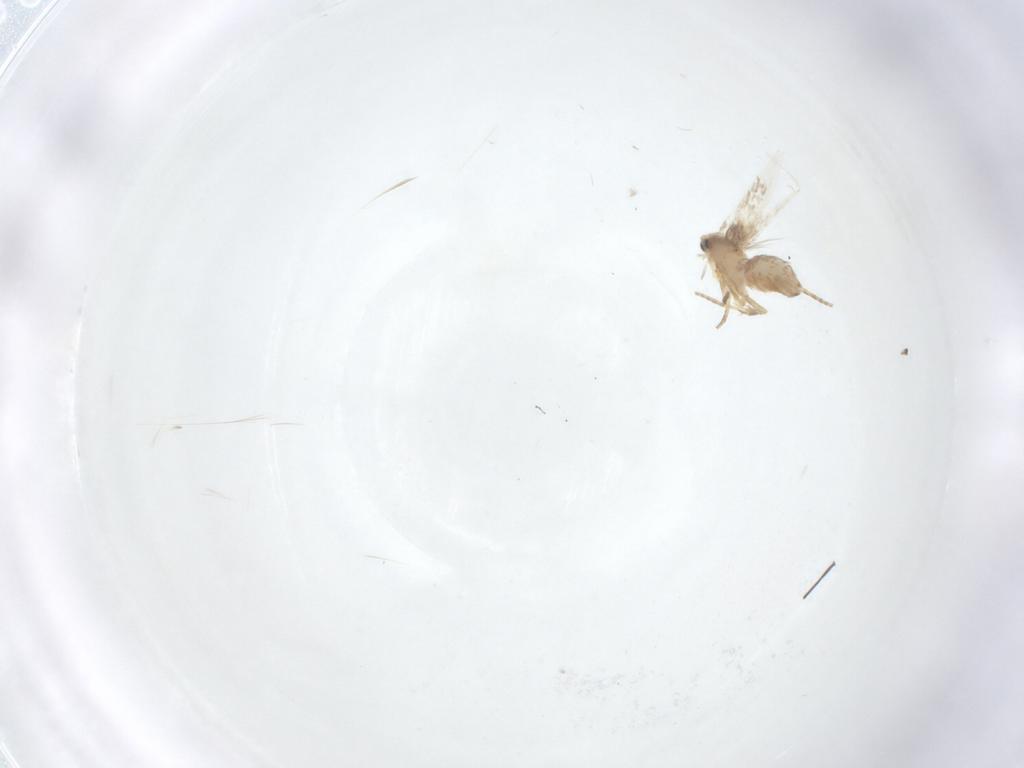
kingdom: Animalia
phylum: Arthropoda
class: Insecta
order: Lepidoptera
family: Nepticulidae
